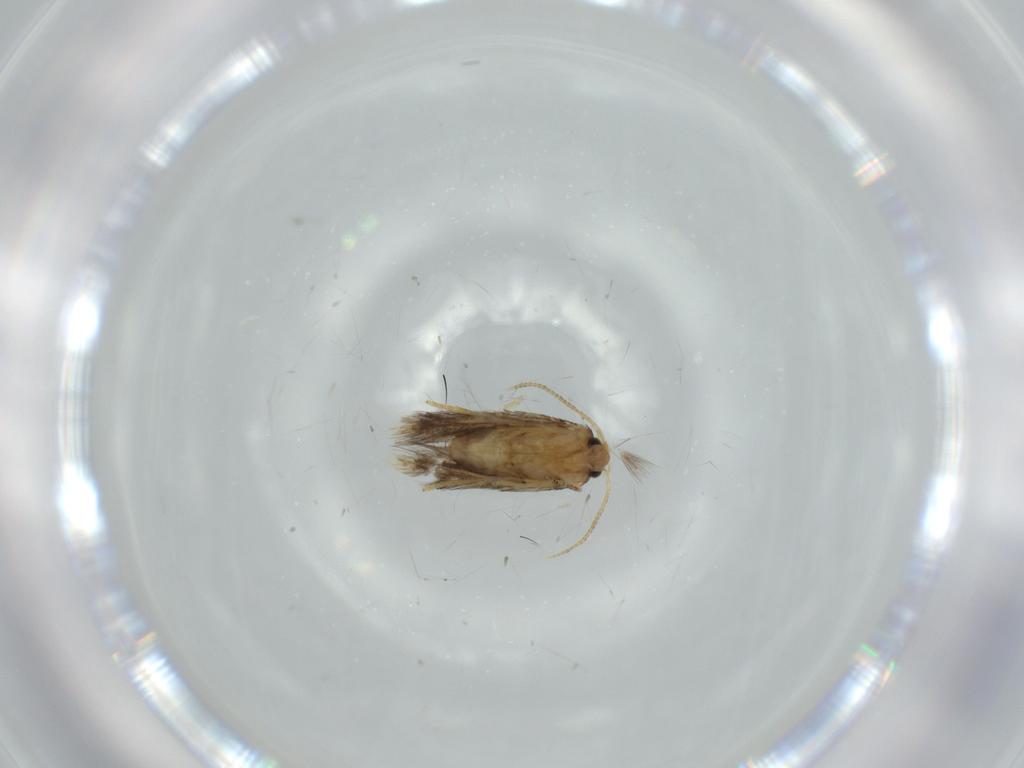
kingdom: Animalia
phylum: Arthropoda
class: Insecta
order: Lepidoptera
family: Nepticulidae
